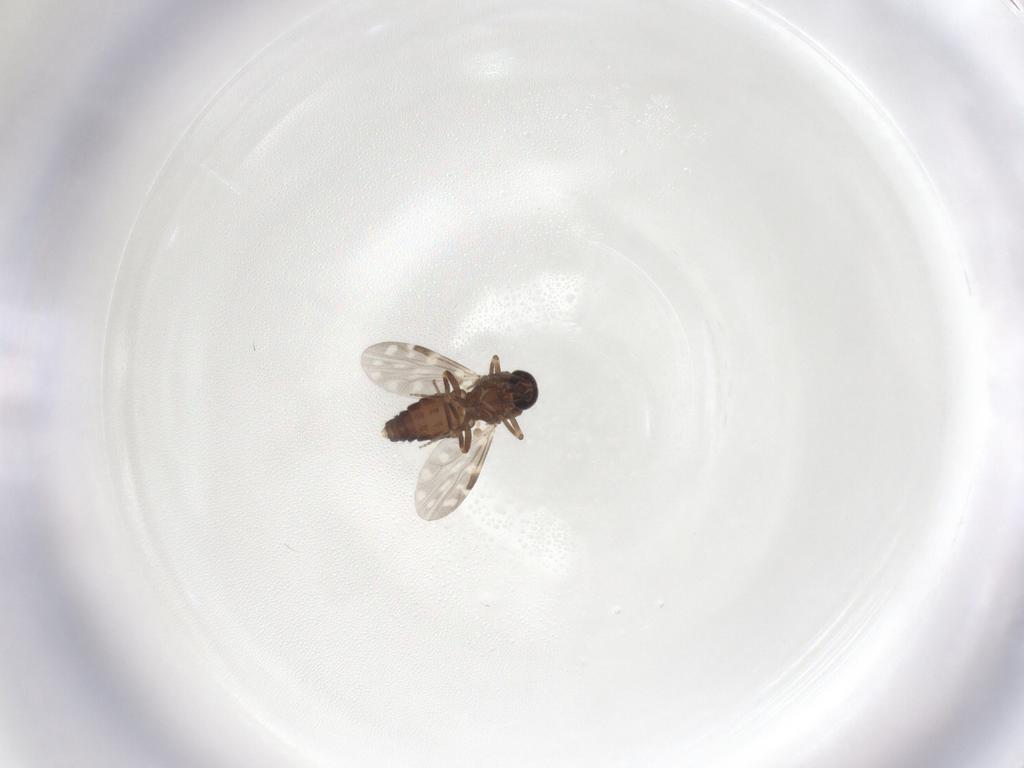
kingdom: Animalia
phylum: Arthropoda
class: Insecta
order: Diptera
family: Ceratopogonidae
